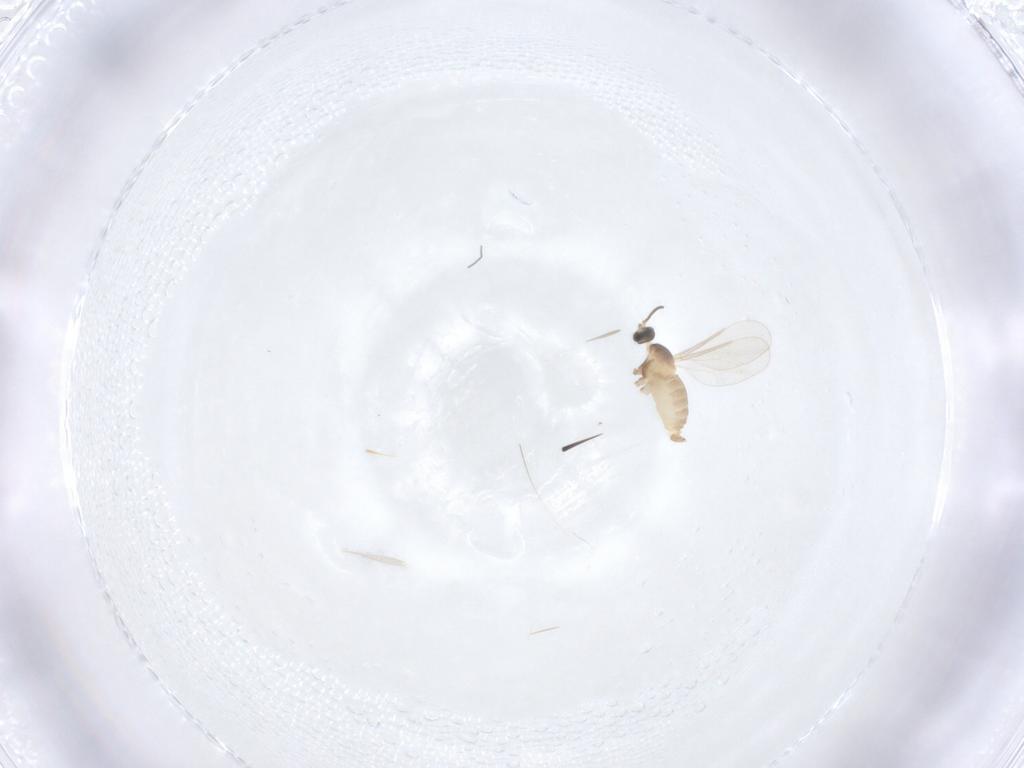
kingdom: Animalia
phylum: Arthropoda
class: Insecta
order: Diptera
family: Cecidomyiidae
